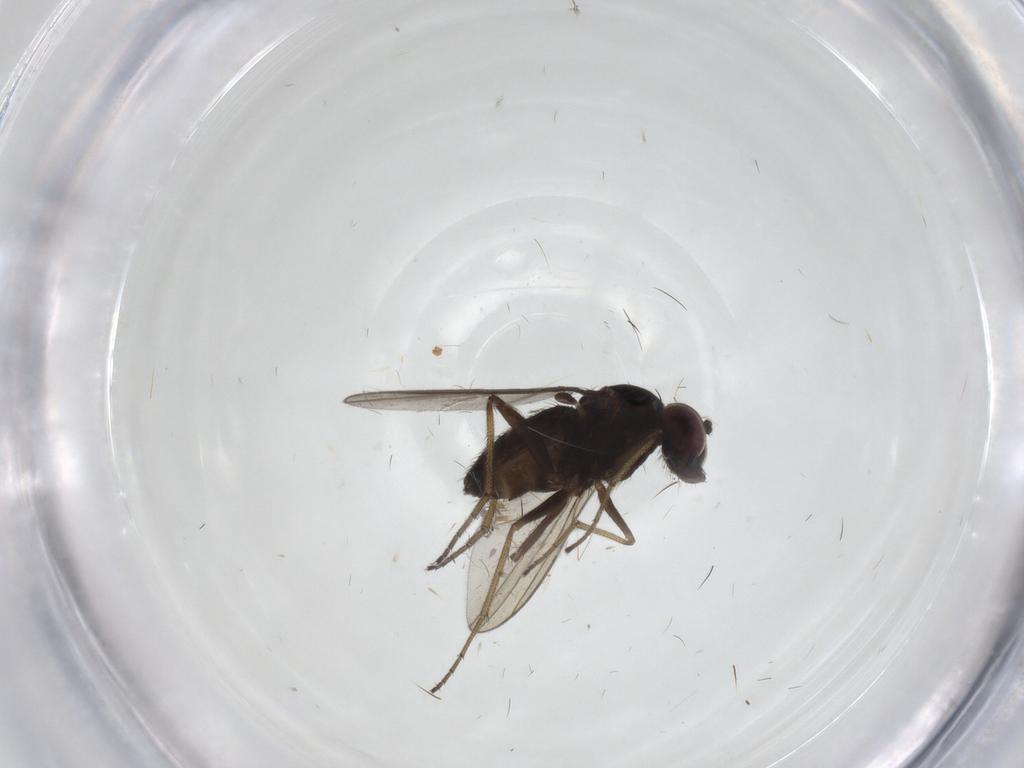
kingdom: Animalia
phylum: Arthropoda
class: Insecta
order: Diptera
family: Dolichopodidae
